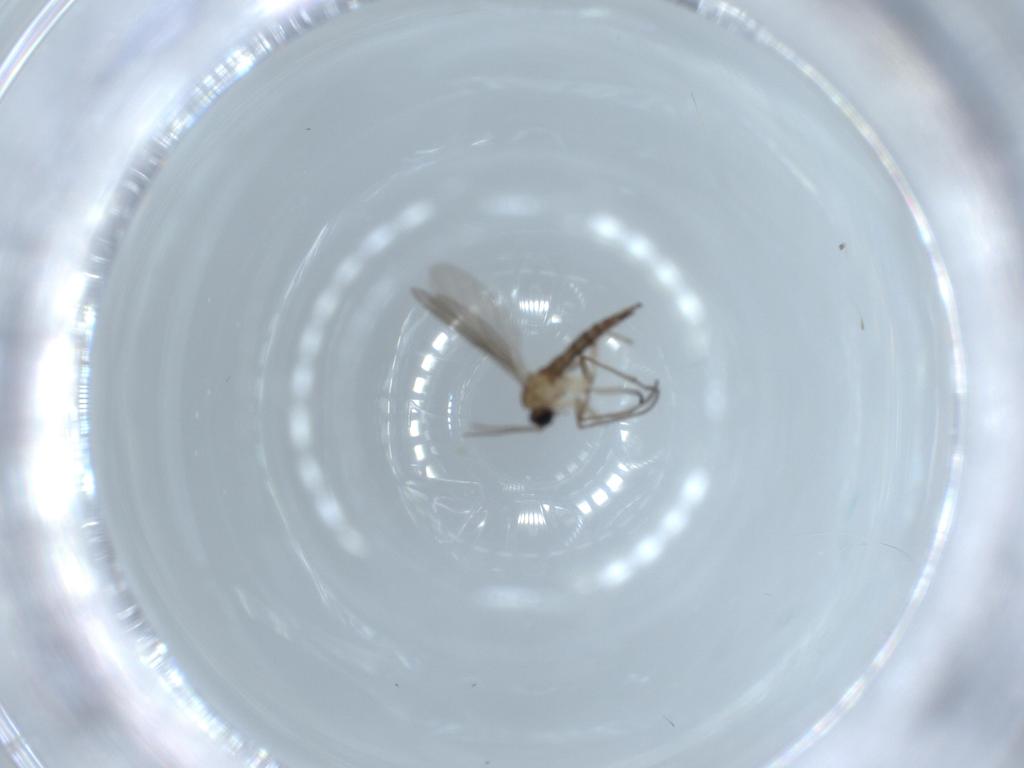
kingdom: Animalia
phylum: Arthropoda
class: Insecta
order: Diptera
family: Sciaridae
